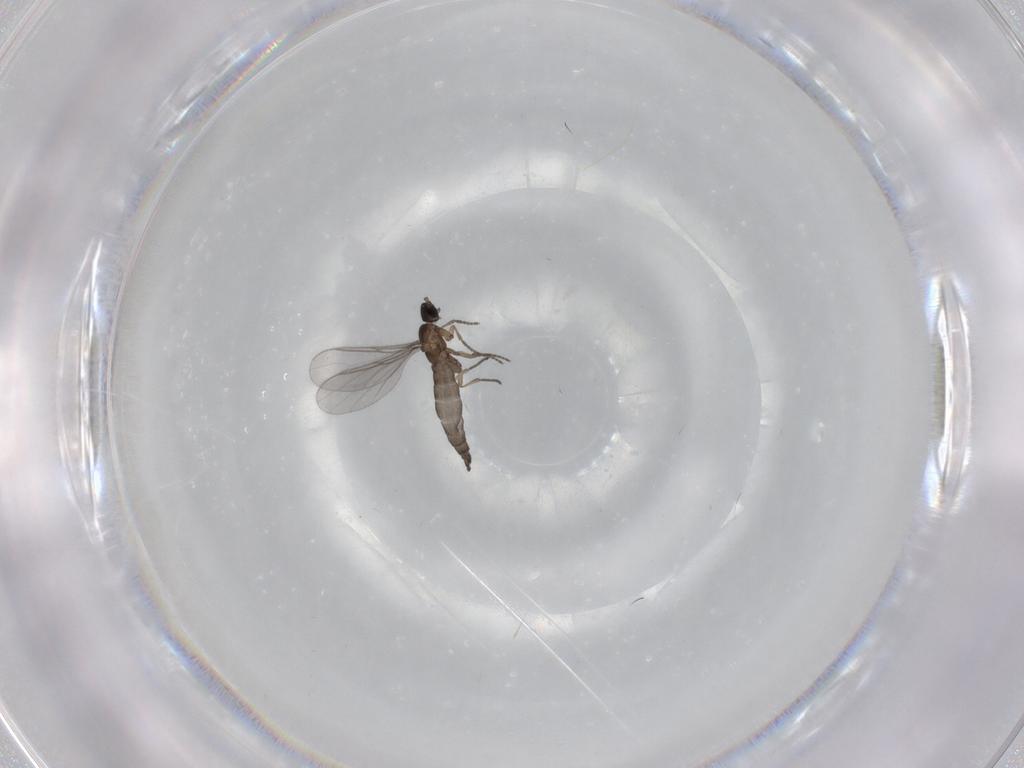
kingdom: Animalia
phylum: Arthropoda
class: Insecta
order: Diptera
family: Sciaridae
